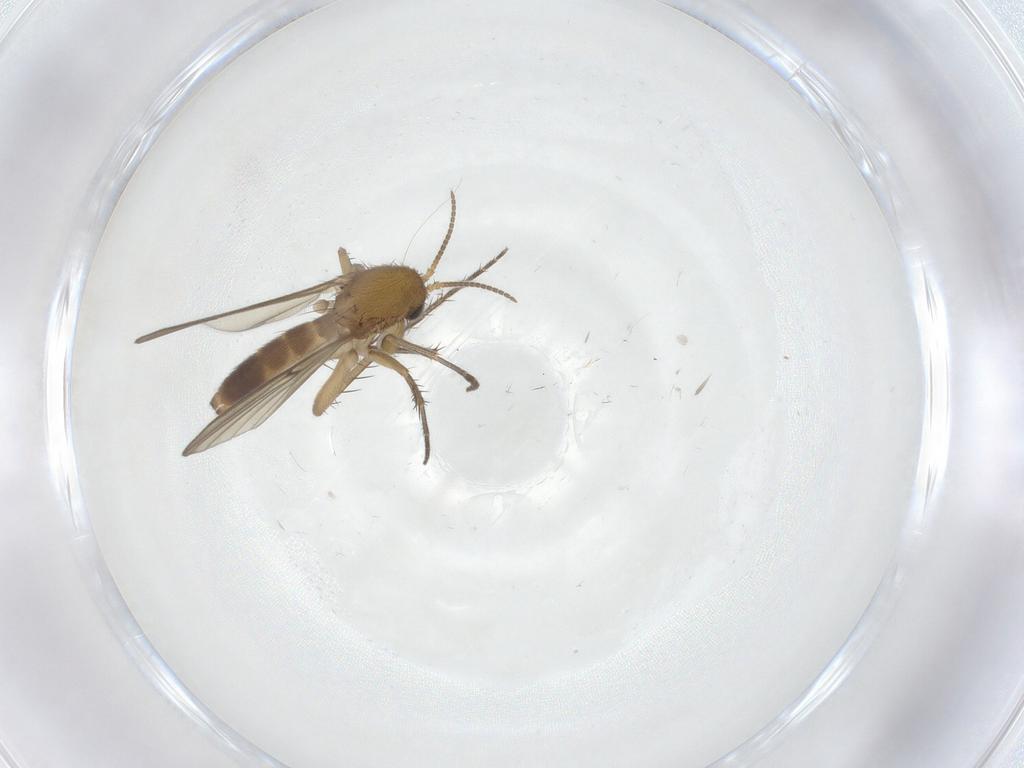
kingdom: Animalia
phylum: Arthropoda
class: Insecta
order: Diptera
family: Mycetophilidae
